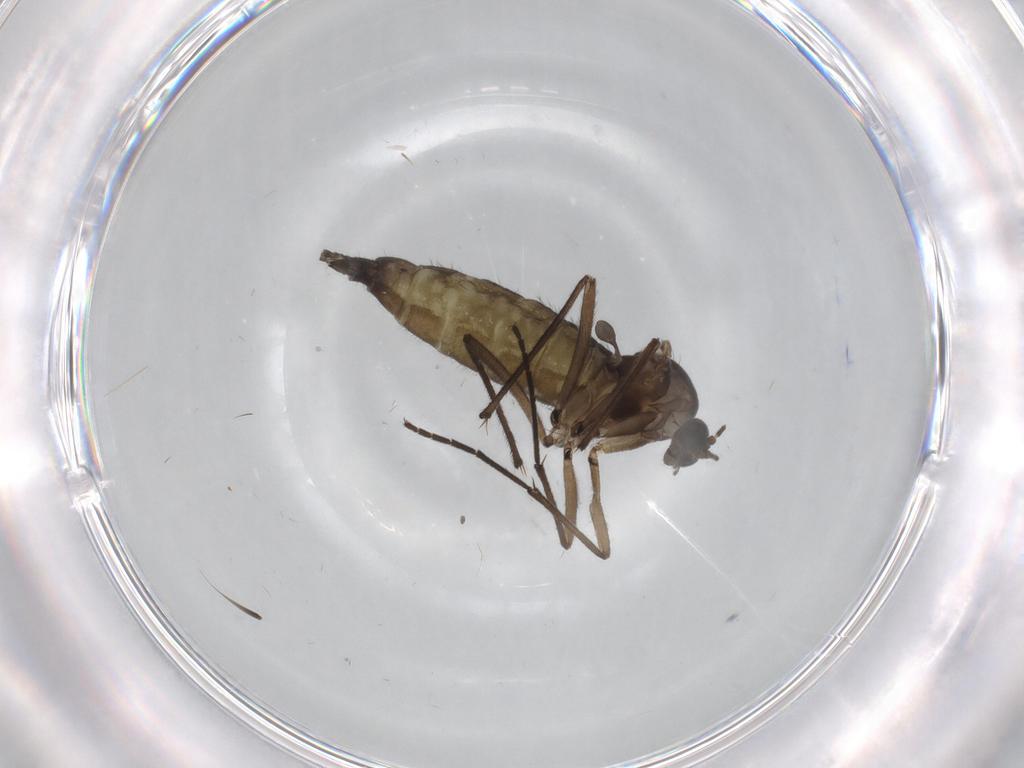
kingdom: Animalia
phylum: Arthropoda
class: Insecta
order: Diptera
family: Sciaridae
